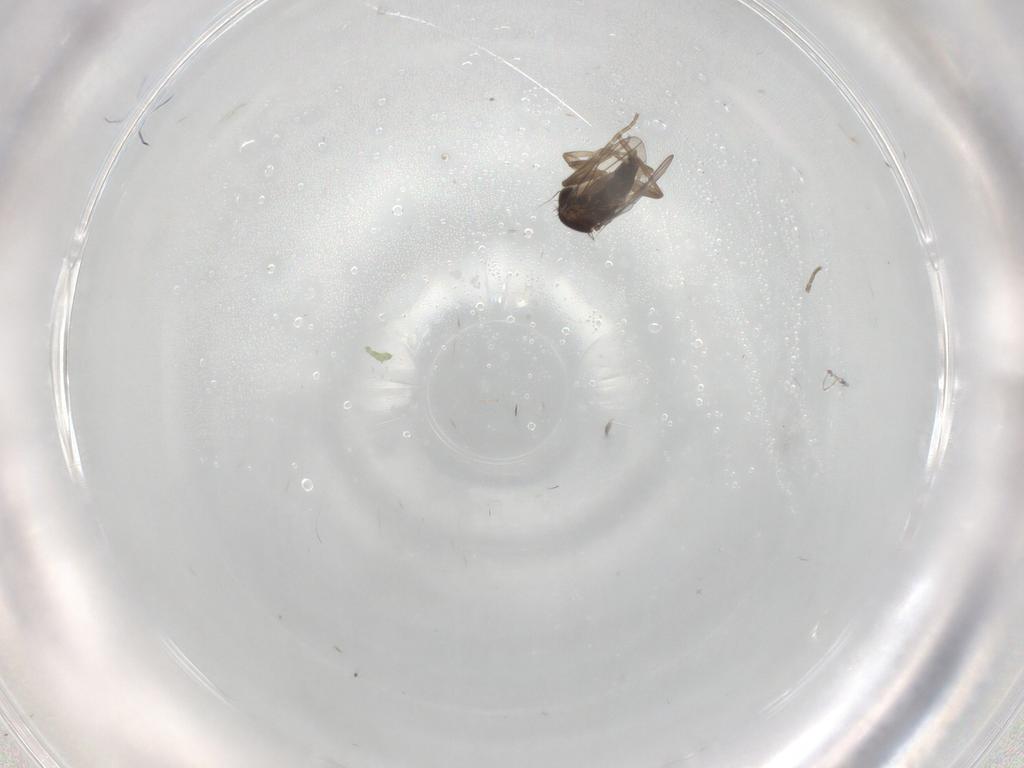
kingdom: Animalia
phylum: Arthropoda
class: Insecta
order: Diptera
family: Phoridae
